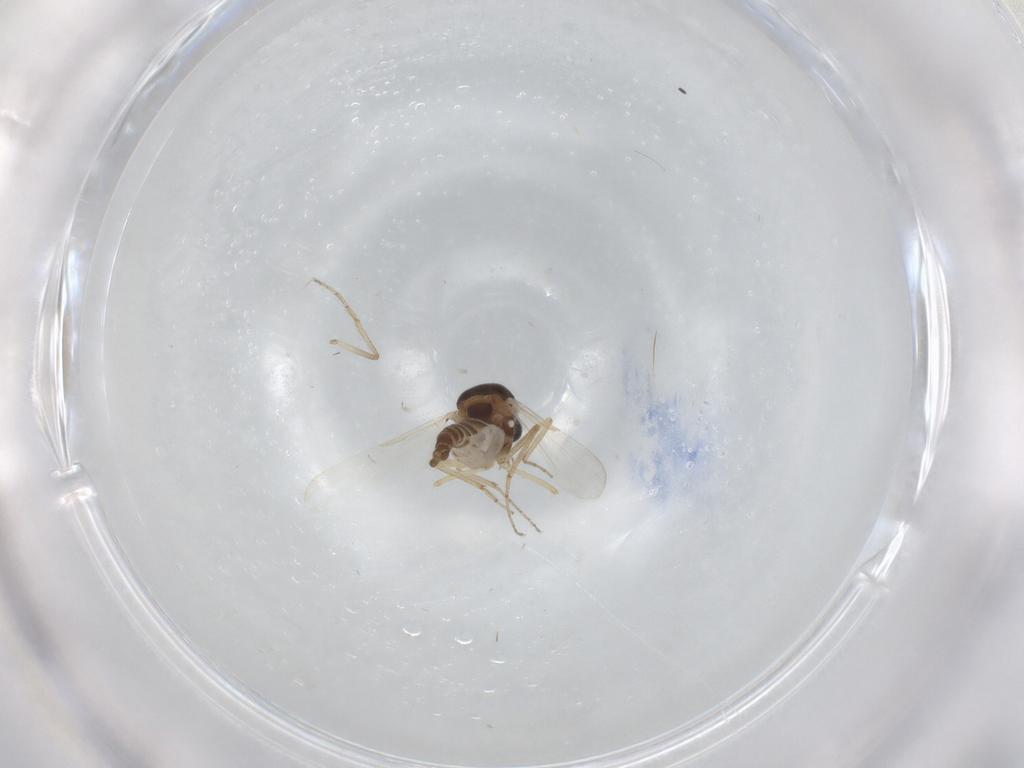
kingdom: Animalia
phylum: Arthropoda
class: Insecta
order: Diptera
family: Ceratopogonidae
